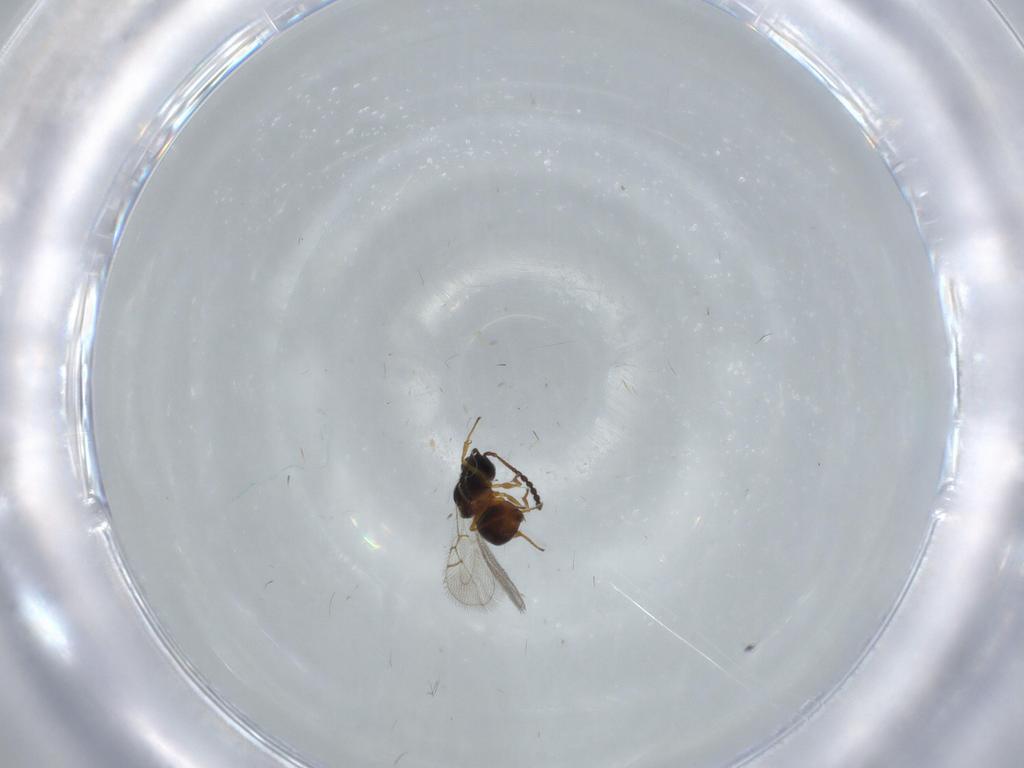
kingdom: Animalia
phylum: Arthropoda
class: Insecta
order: Hymenoptera
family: Figitidae
